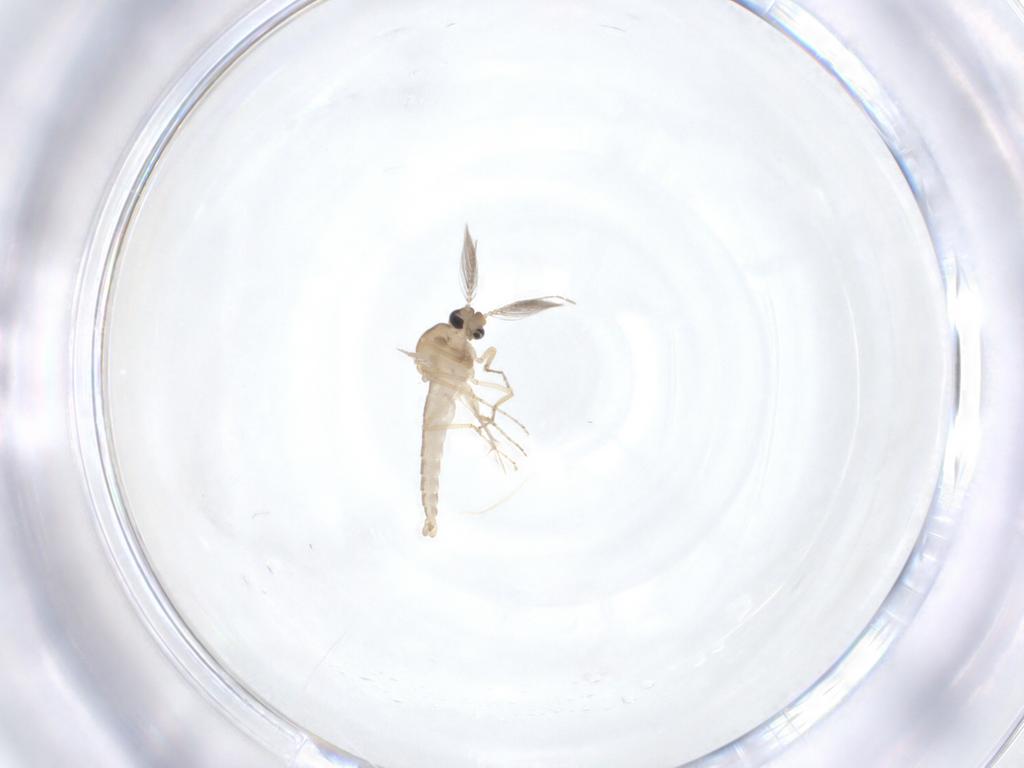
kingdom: Animalia
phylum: Arthropoda
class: Insecta
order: Diptera
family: Ceratopogonidae
